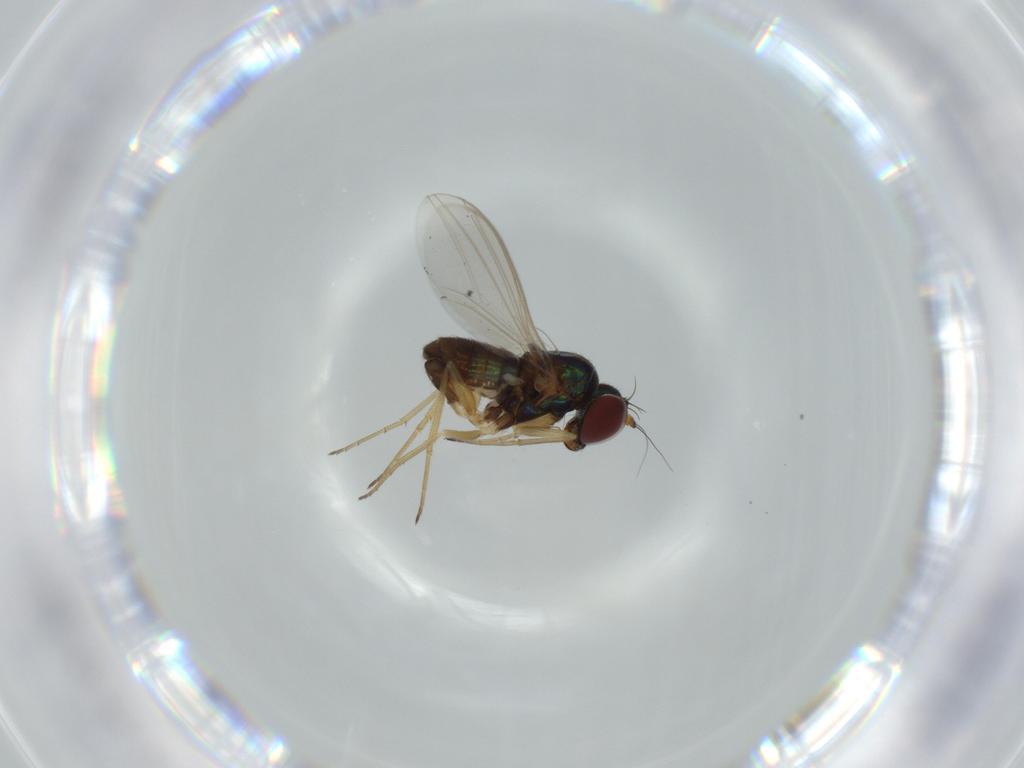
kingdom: Animalia
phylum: Arthropoda
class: Insecta
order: Diptera
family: Dolichopodidae
